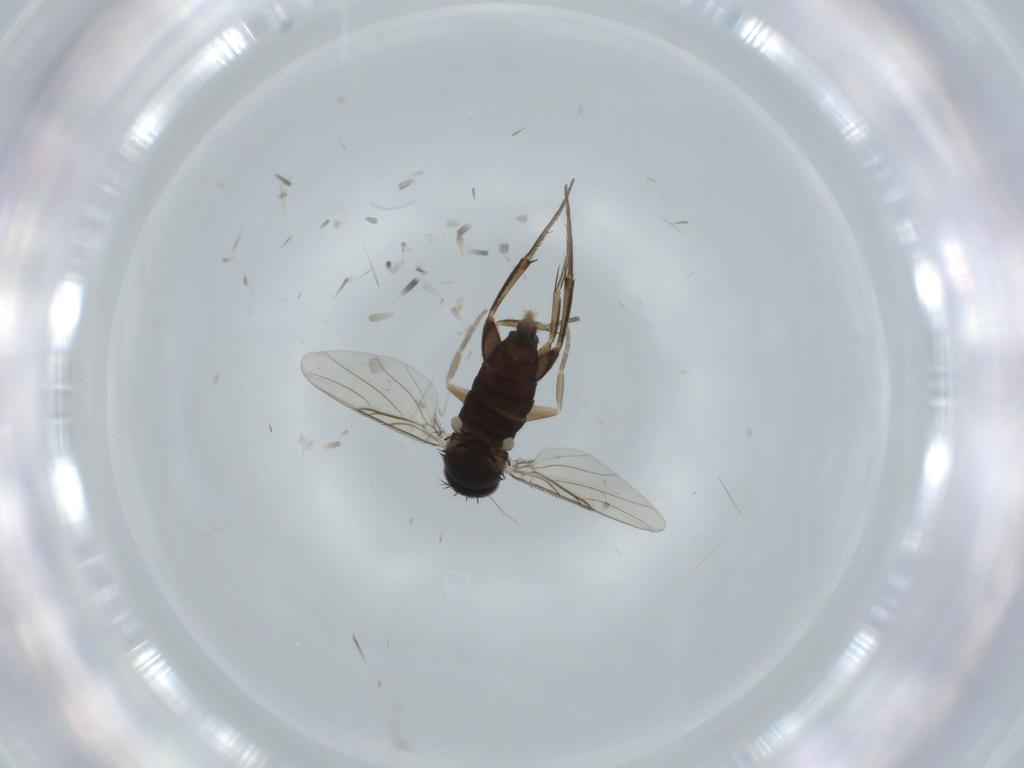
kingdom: Animalia
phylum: Arthropoda
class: Insecta
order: Diptera
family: Phoridae
